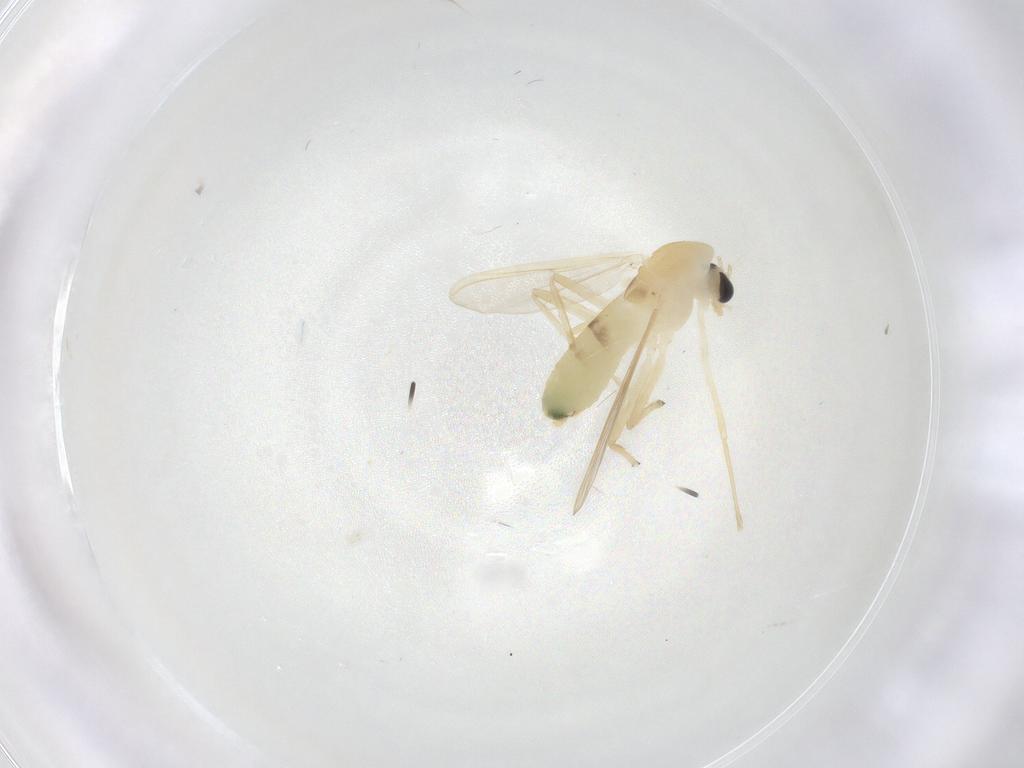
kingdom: Animalia
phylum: Arthropoda
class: Insecta
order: Diptera
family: Chironomidae
